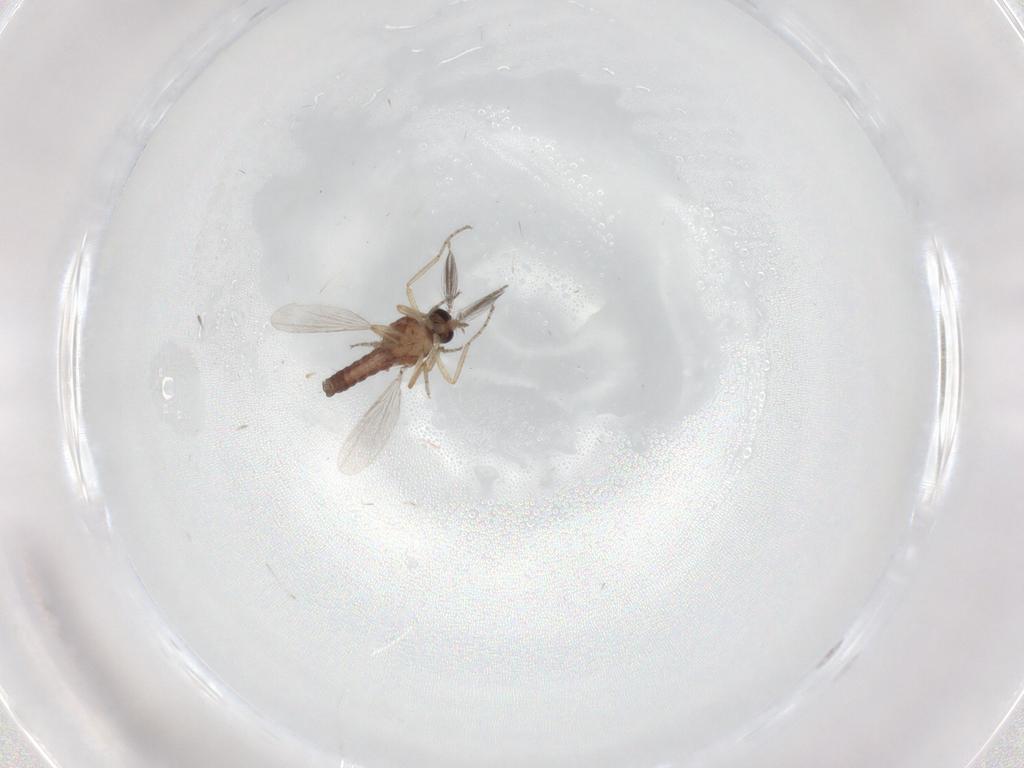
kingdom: Animalia
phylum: Arthropoda
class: Insecta
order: Diptera
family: Ceratopogonidae
